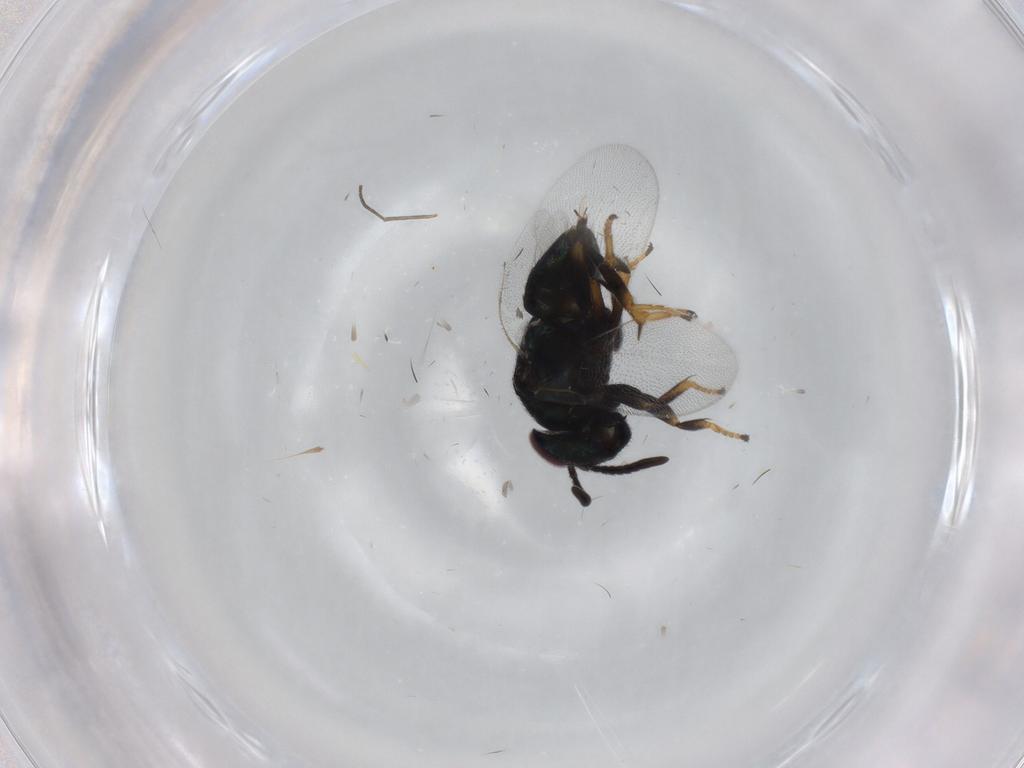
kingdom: Animalia
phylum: Arthropoda
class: Insecta
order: Hymenoptera
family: Encyrtidae
